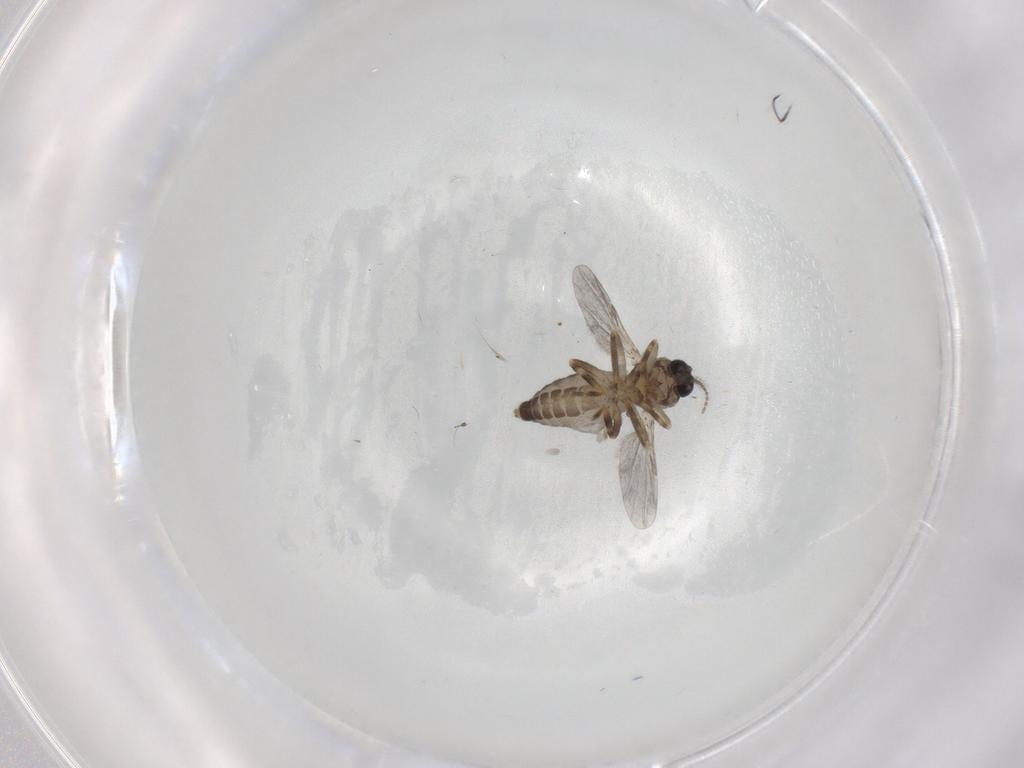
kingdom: Animalia
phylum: Arthropoda
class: Insecta
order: Diptera
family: Ceratopogonidae
